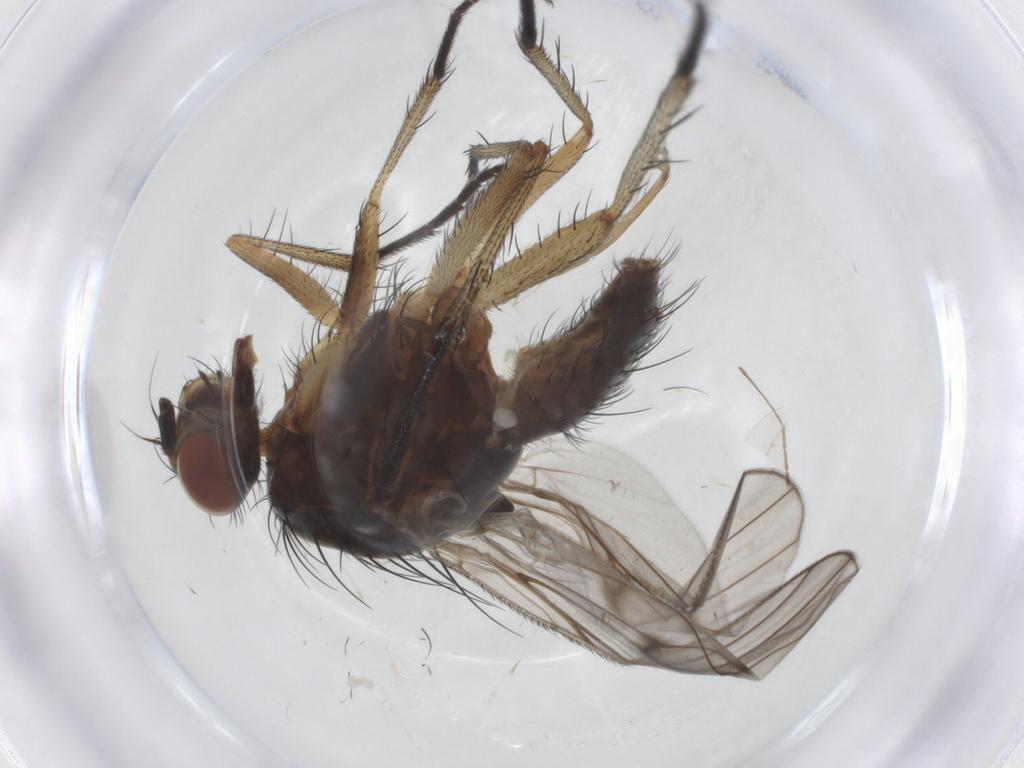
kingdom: Animalia
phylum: Arthropoda
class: Insecta
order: Diptera
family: Anthomyiidae
